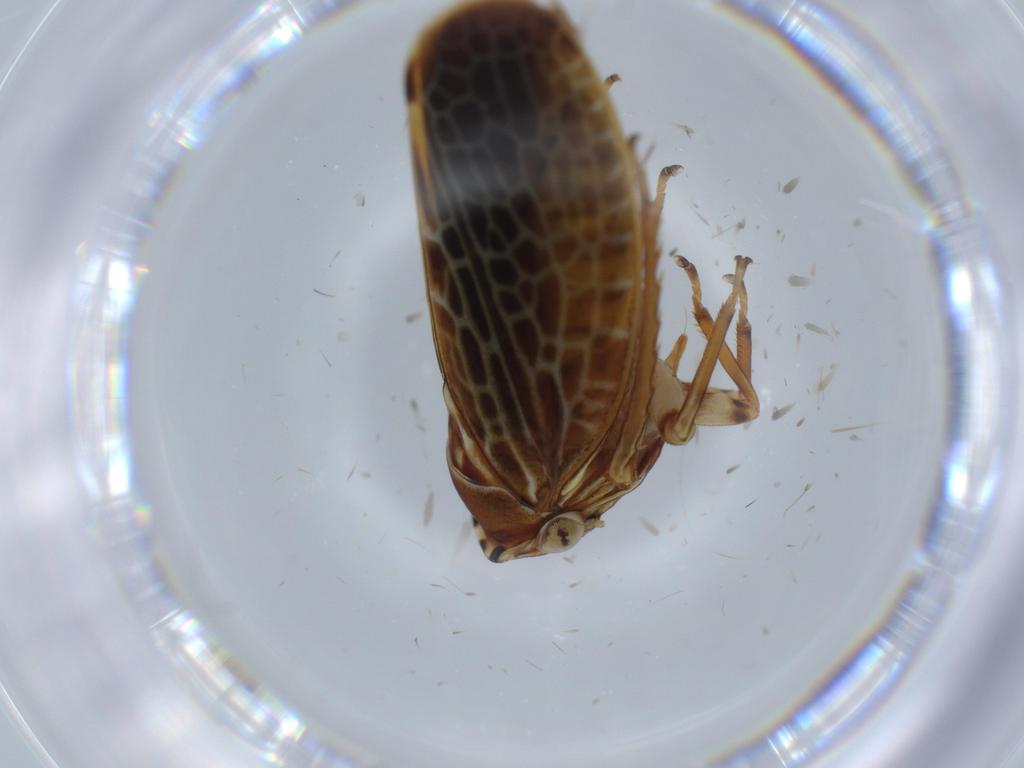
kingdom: Animalia
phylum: Arthropoda
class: Insecta
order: Hemiptera
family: Cicadellidae
